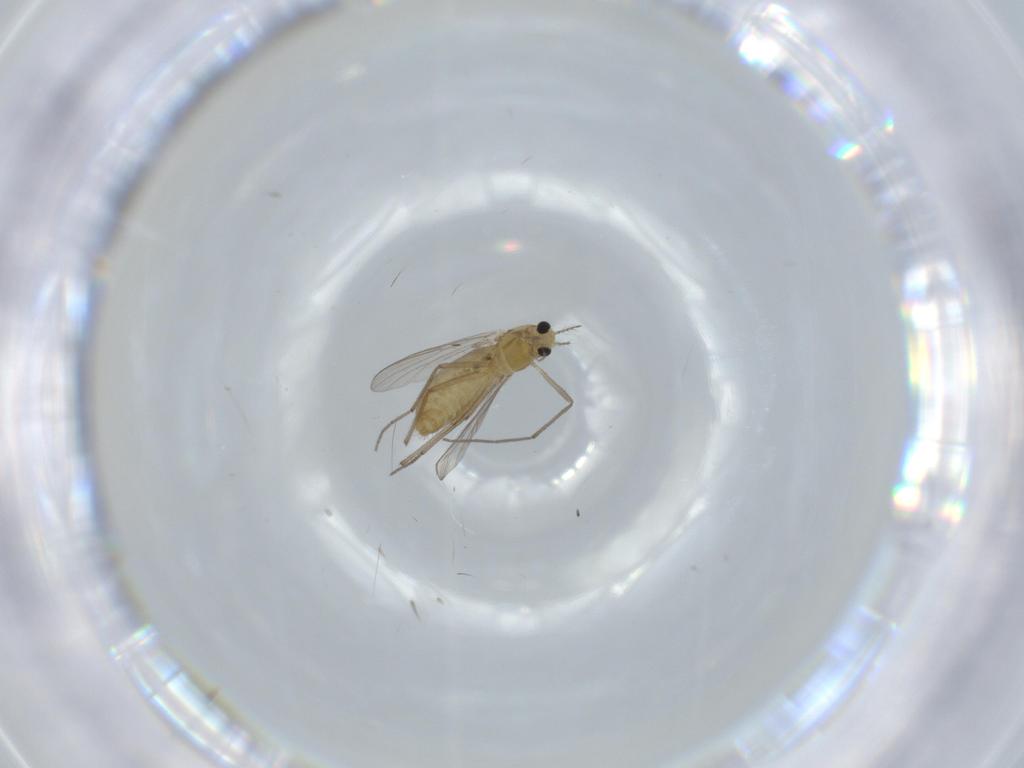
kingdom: Animalia
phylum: Arthropoda
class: Insecta
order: Diptera
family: Chironomidae
